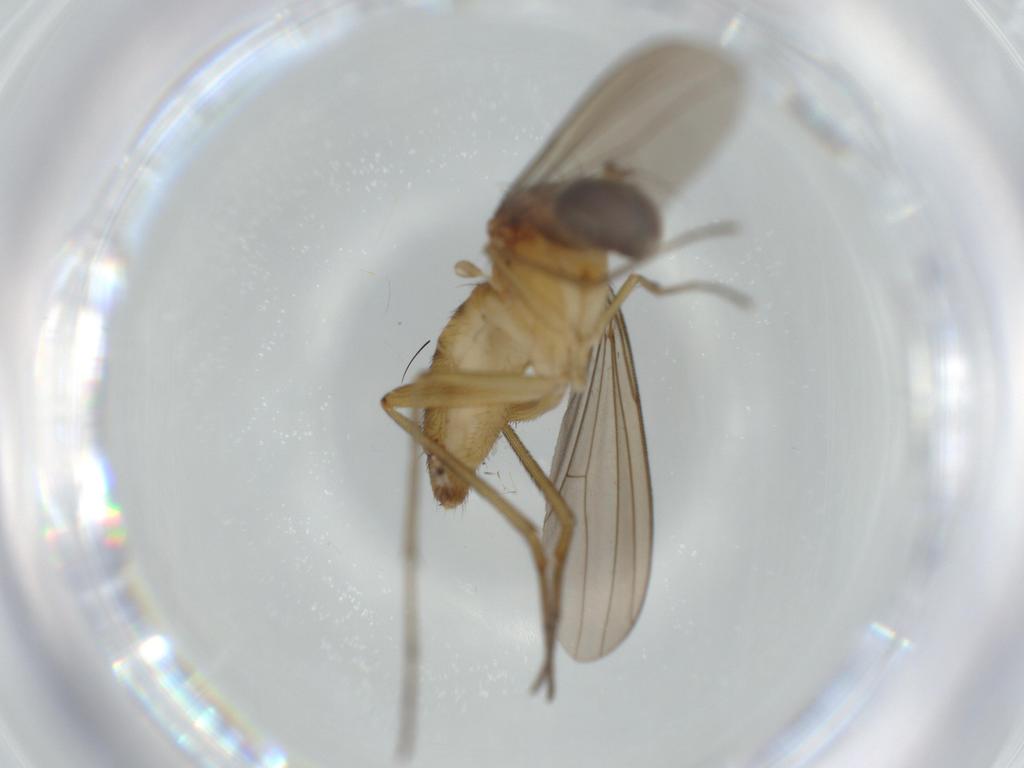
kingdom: Animalia
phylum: Arthropoda
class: Insecta
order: Diptera
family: Dolichopodidae
